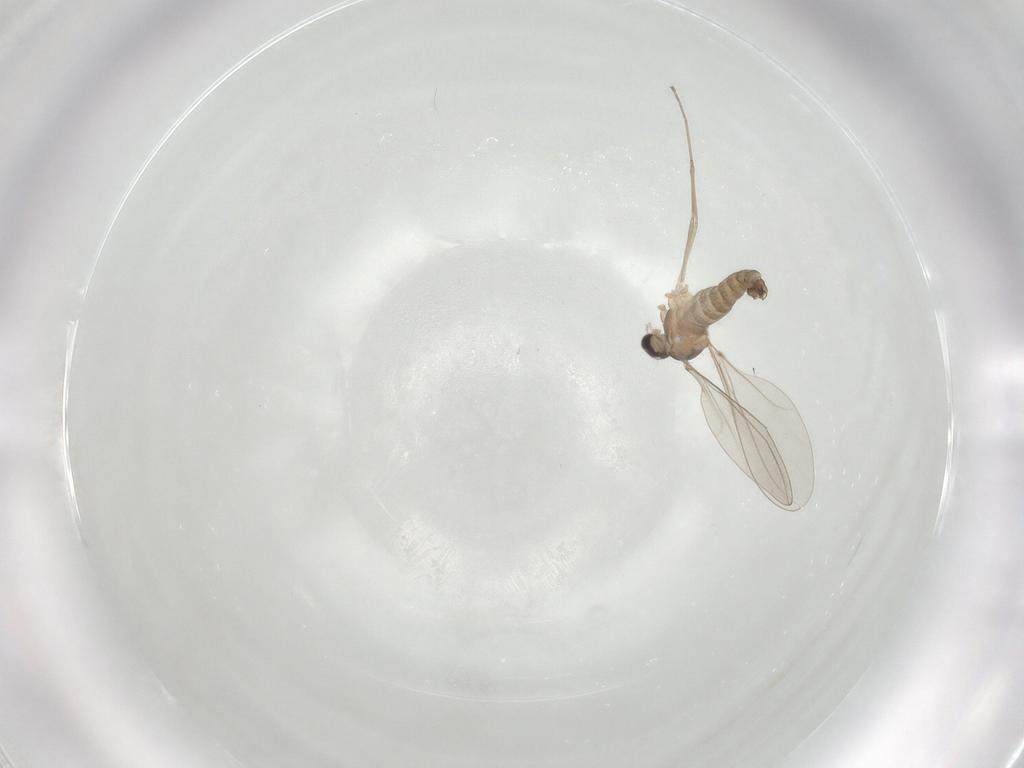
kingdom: Animalia
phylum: Arthropoda
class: Insecta
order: Diptera
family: Cecidomyiidae
